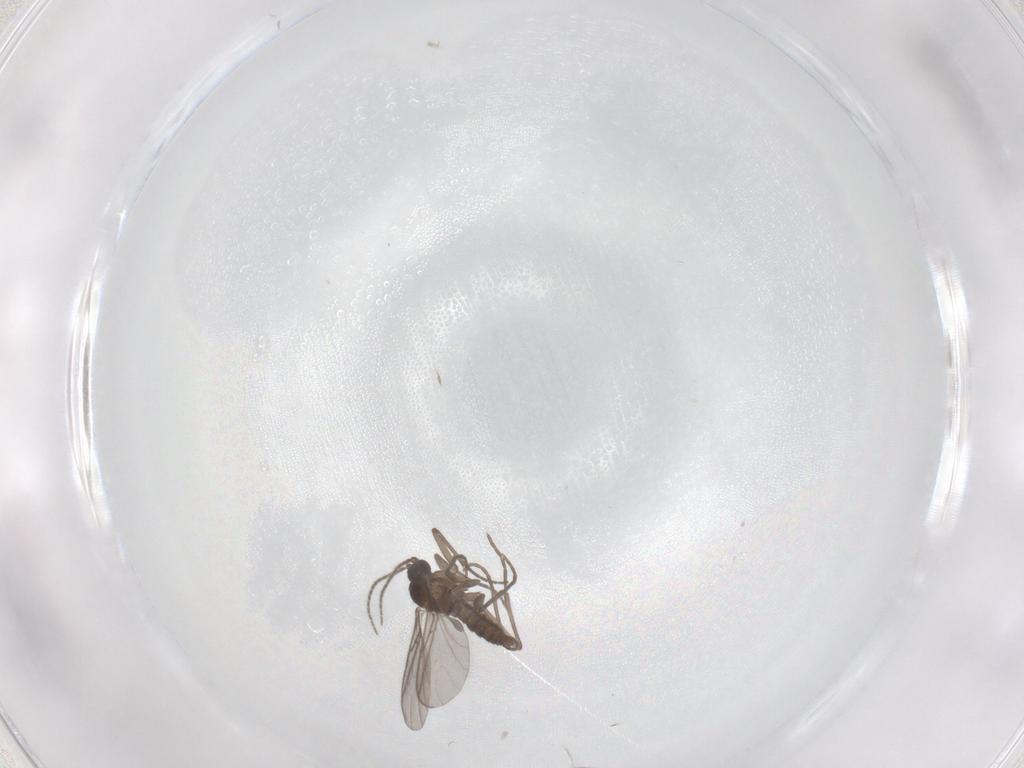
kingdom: Animalia
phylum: Arthropoda
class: Insecta
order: Diptera
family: Sciaridae
